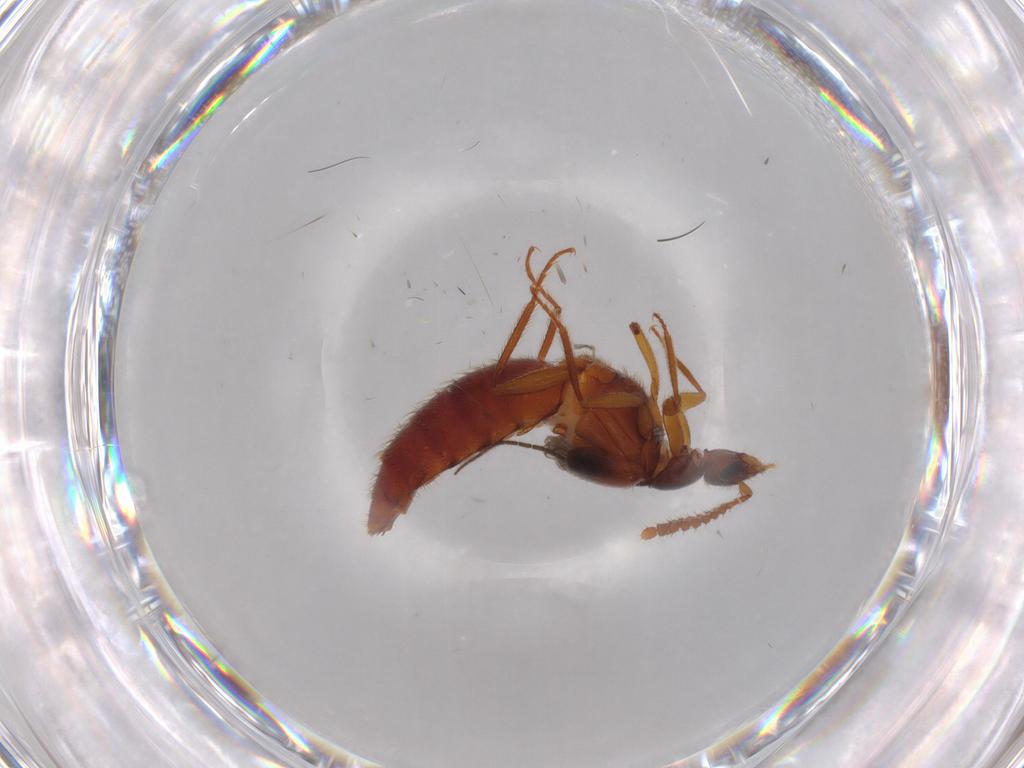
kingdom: Animalia
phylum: Arthropoda
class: Insecta
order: Coleoptera
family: Staphylinidae
